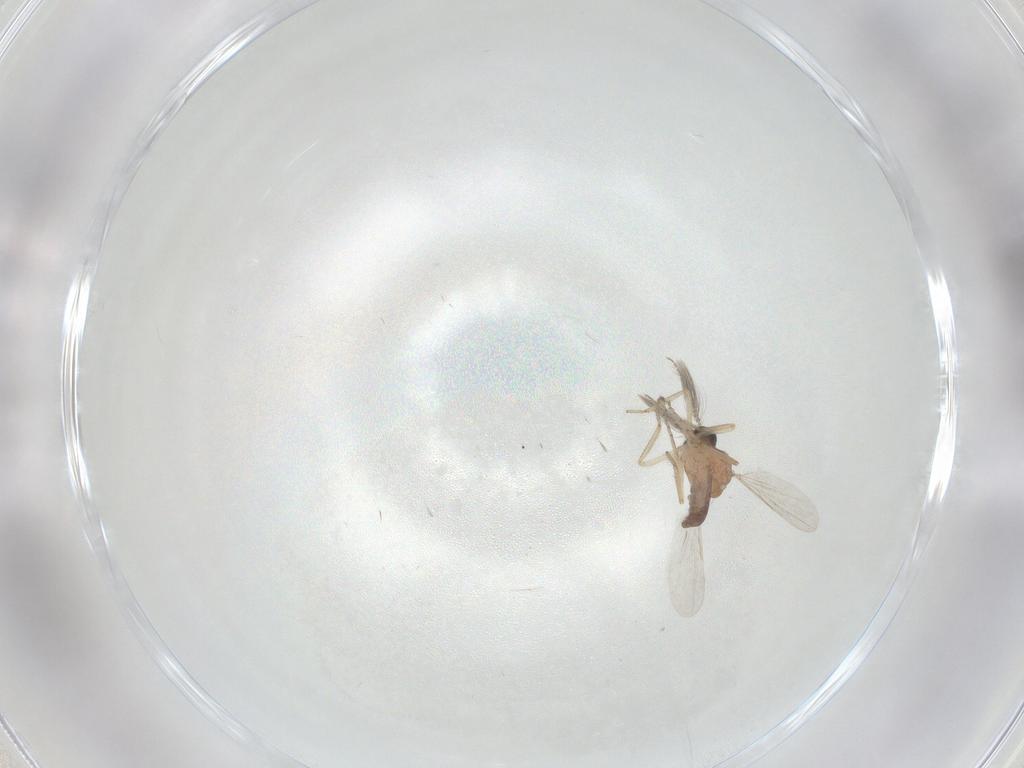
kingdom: Animalia
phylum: Arthropoda
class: Insecta
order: Diptera
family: Ceratopogonidae
